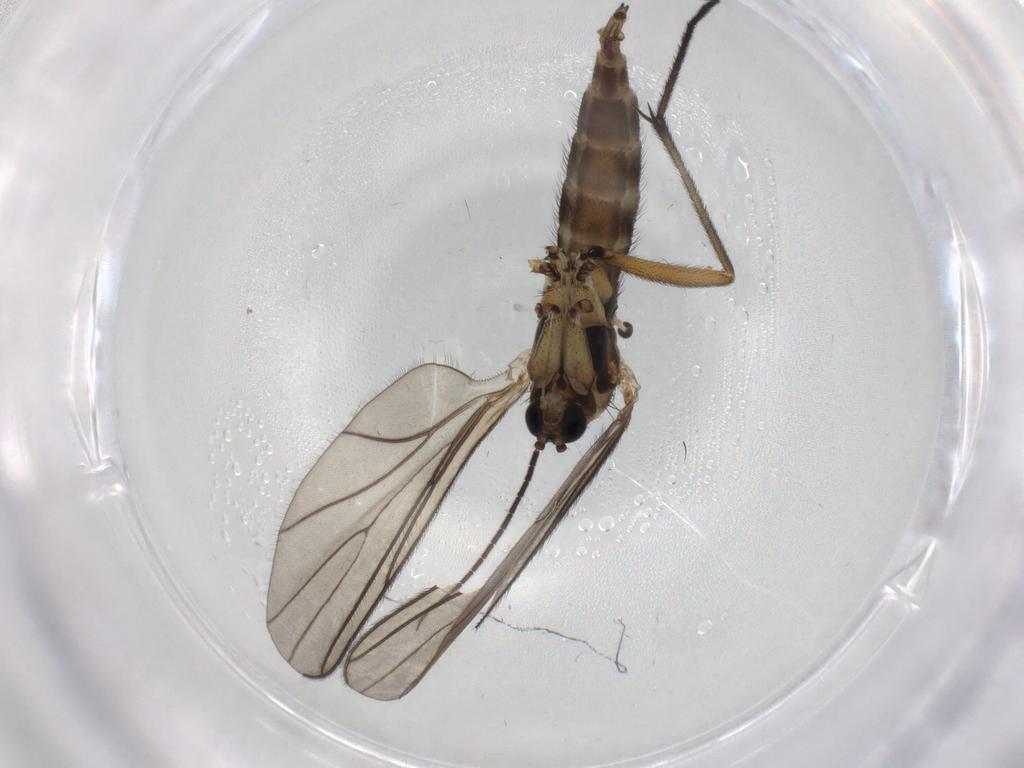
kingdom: Animalia
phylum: Arthropoda
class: Insecta
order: Diptera
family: Sciaridae
